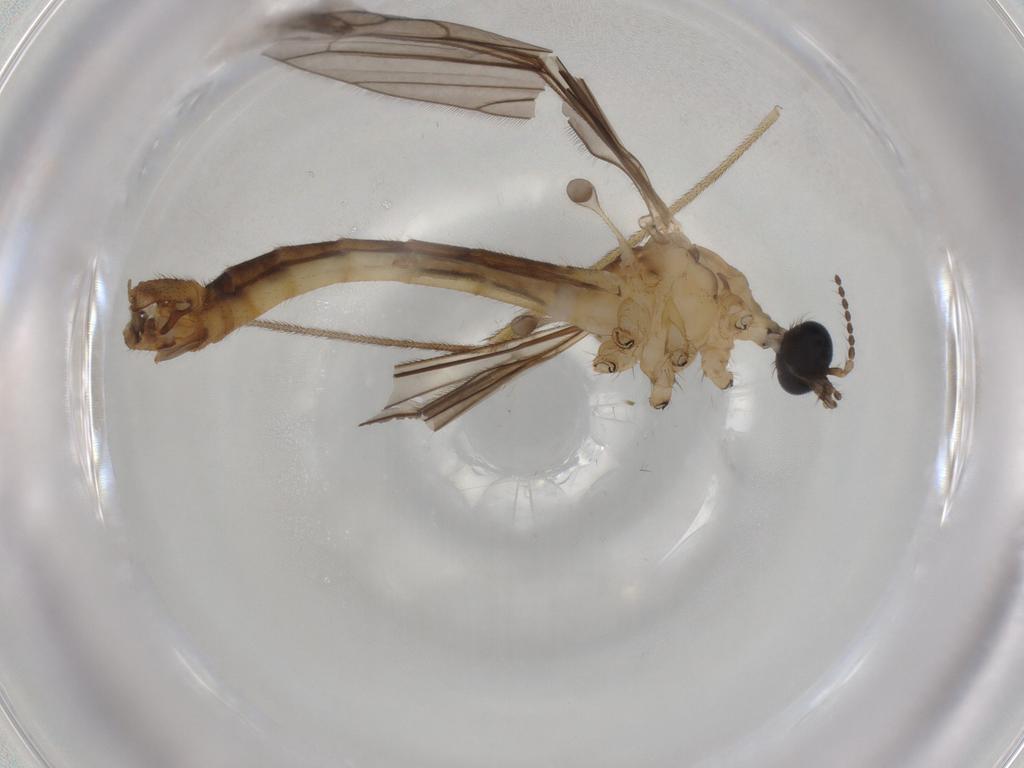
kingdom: Animalia
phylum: Arthropoda
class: Insecta
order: Diptera
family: Limoniidae
